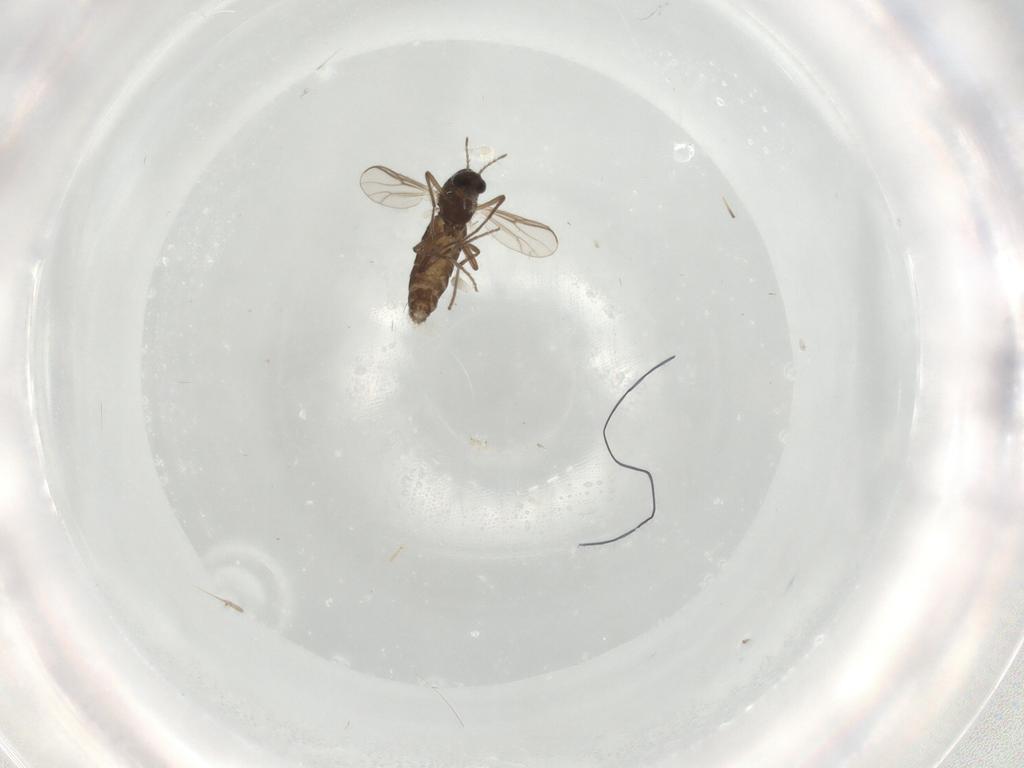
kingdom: Animalia
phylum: Arthropoda
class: Insecta
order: Diptera
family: Chironomidae
